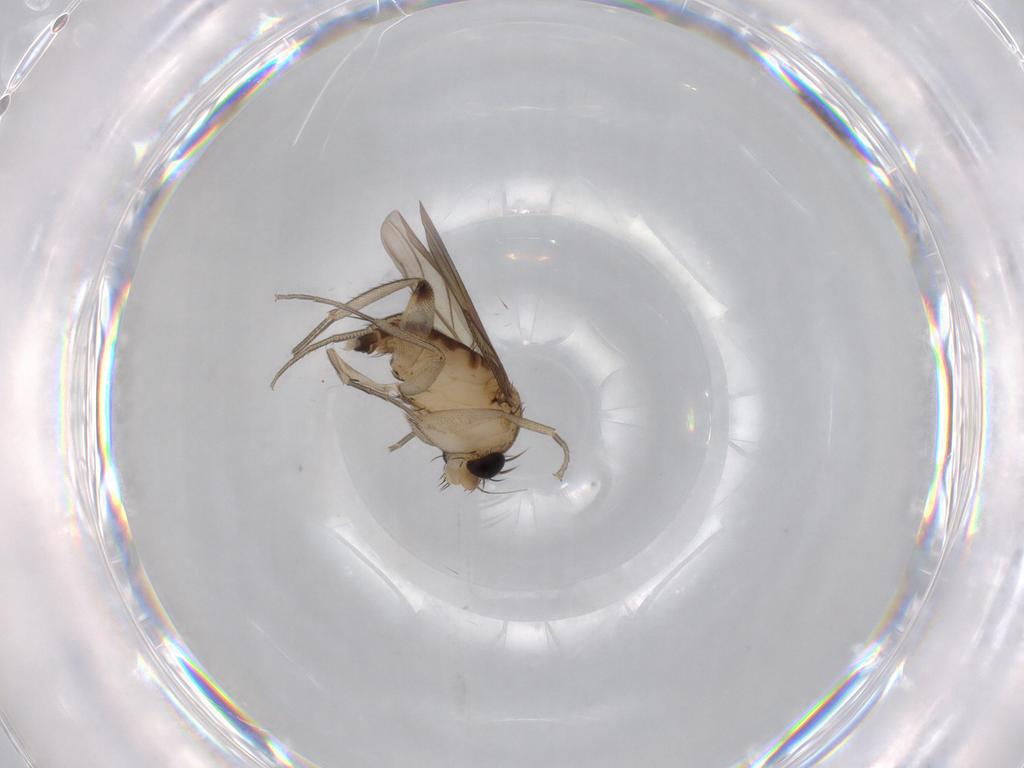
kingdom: Animalia
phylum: Arthropoda
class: Insecta
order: Diptera
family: Phoridae
